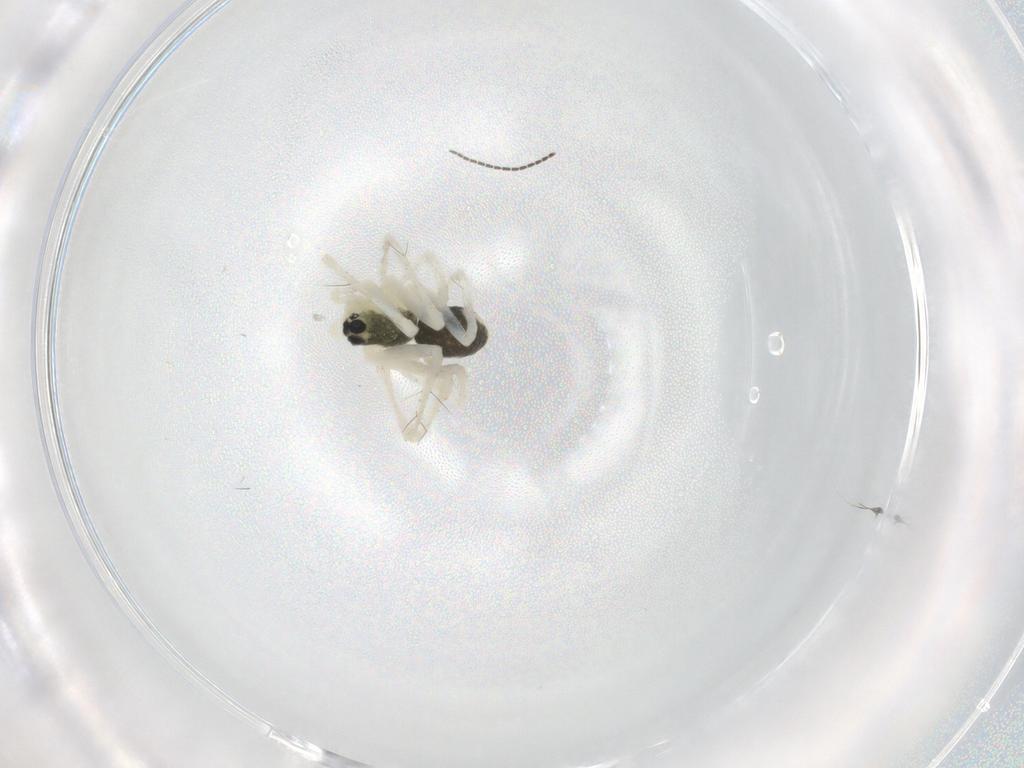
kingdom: Animalia
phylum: Arthropoda
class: Arachnida
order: Araneae
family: Linyphiidae
